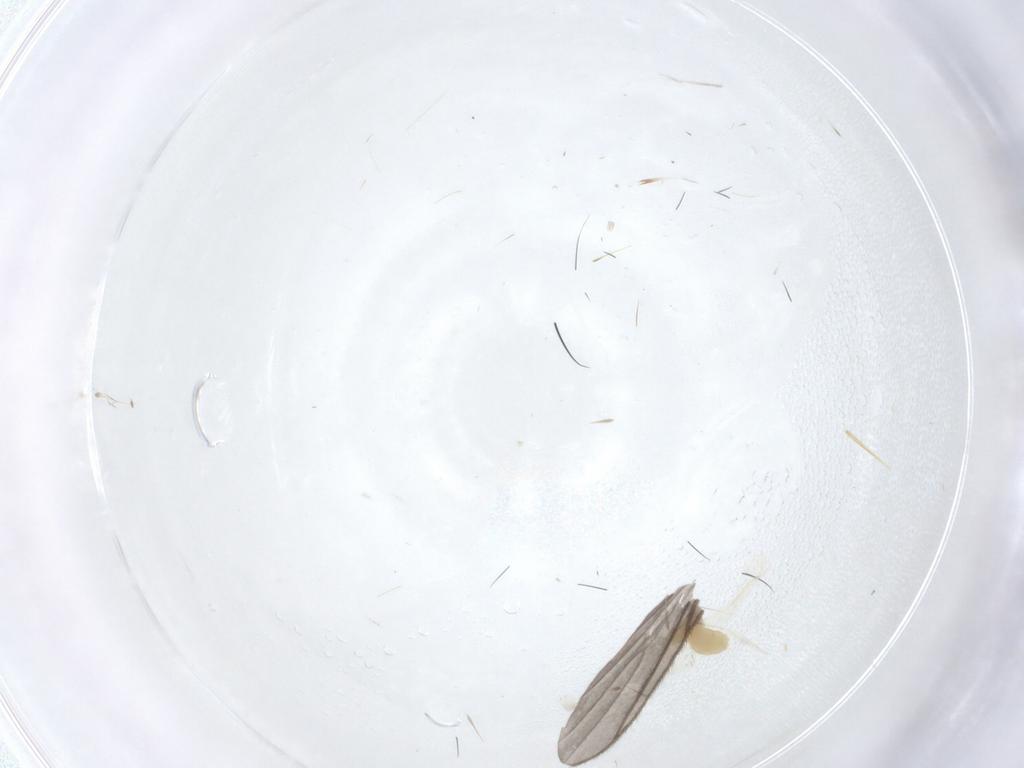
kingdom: Animalia
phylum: Arthropoda
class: Insecta
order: Hemiptera
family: Aleyrodidae
